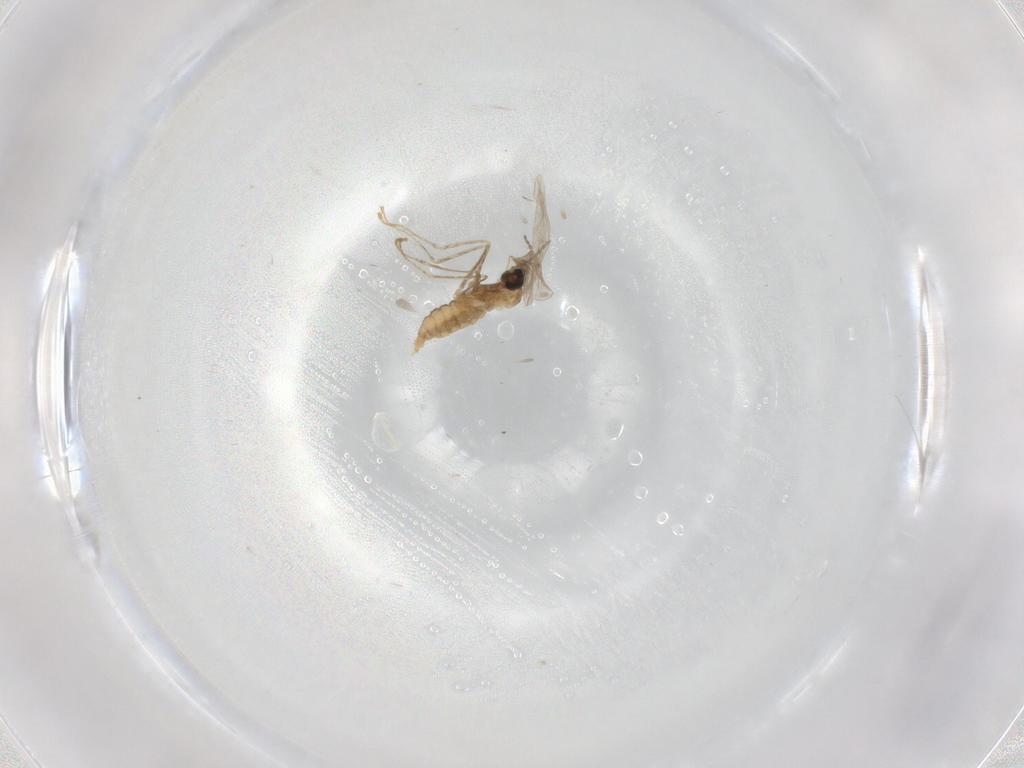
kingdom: Animalia
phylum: Arthropoda
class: Insecta
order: Diptera
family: Cecidomyiidae
